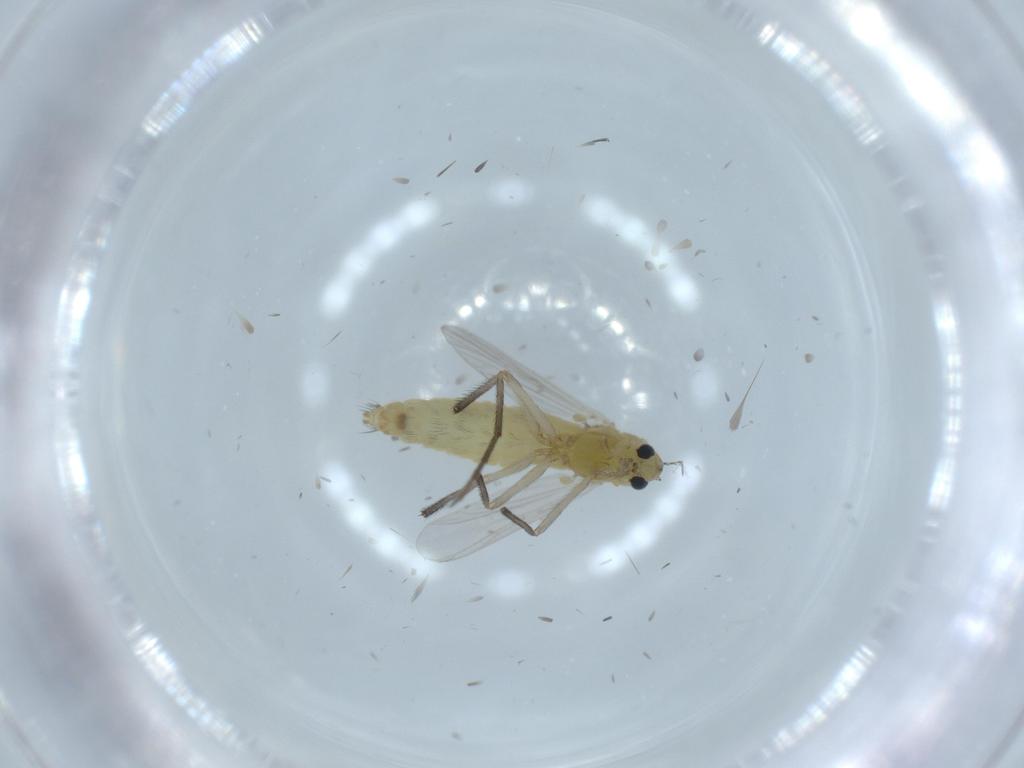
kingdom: Animalia
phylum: Arthropoda
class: Insecta
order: Diptera
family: Chironomidae
